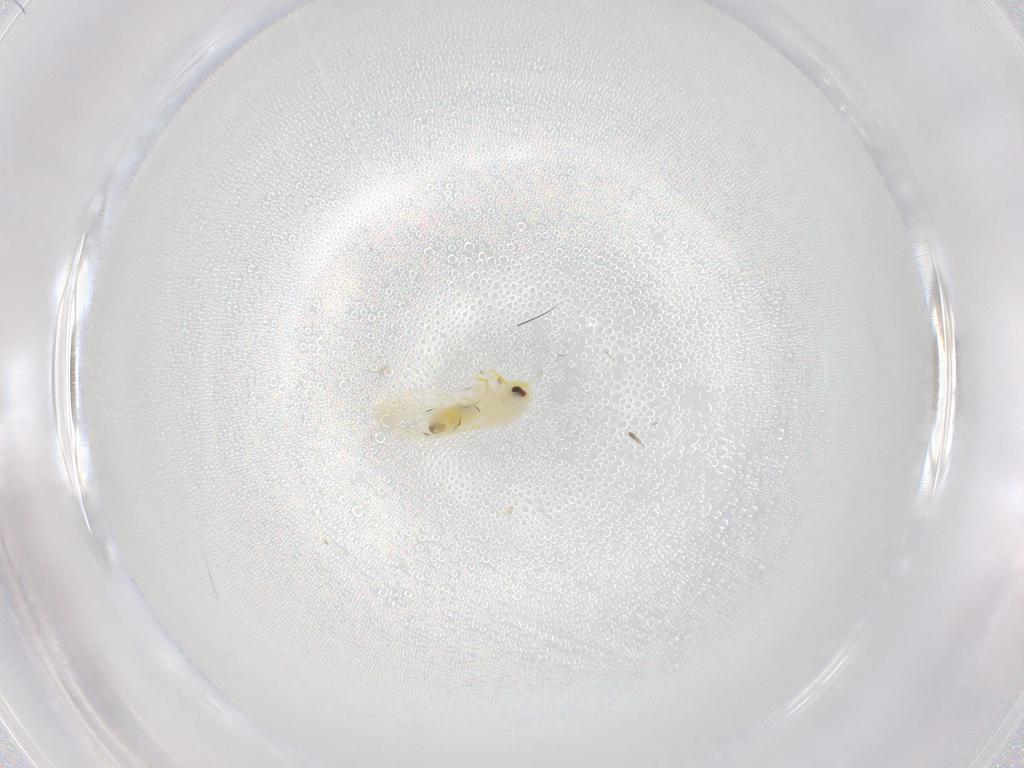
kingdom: Animalia
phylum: Arthropoda
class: Insecta
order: Hemiptera
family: Aleyrodidae
